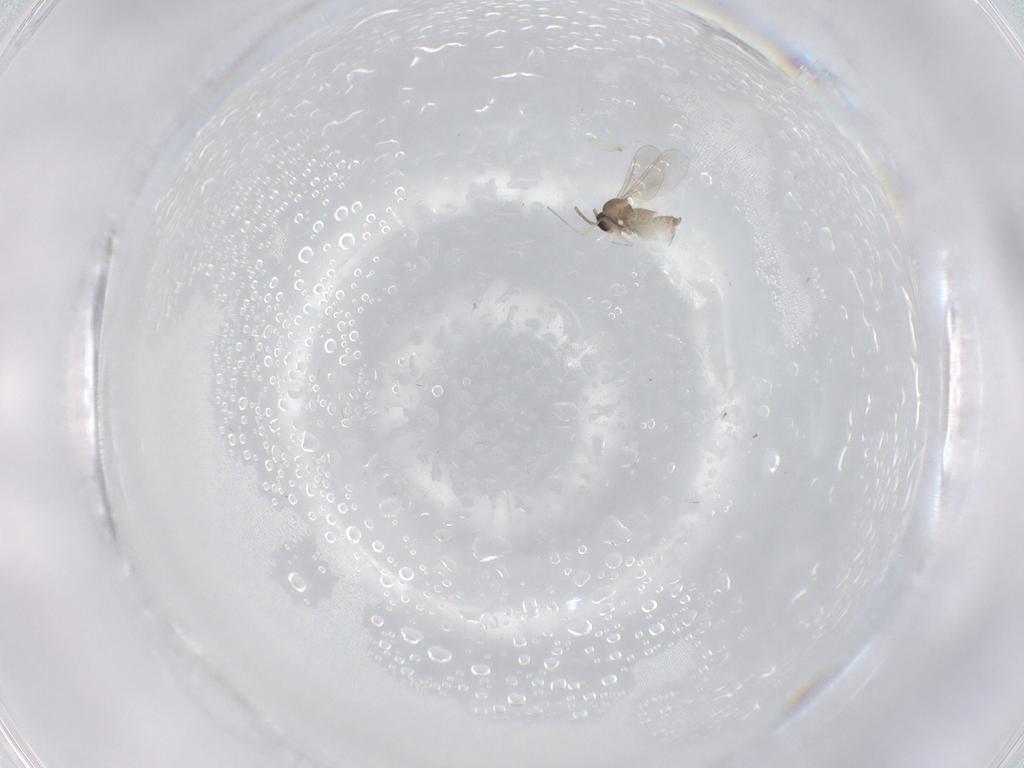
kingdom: Animalia
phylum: Arthropoda
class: Insecta
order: Diptera
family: Cecidomyiidae
